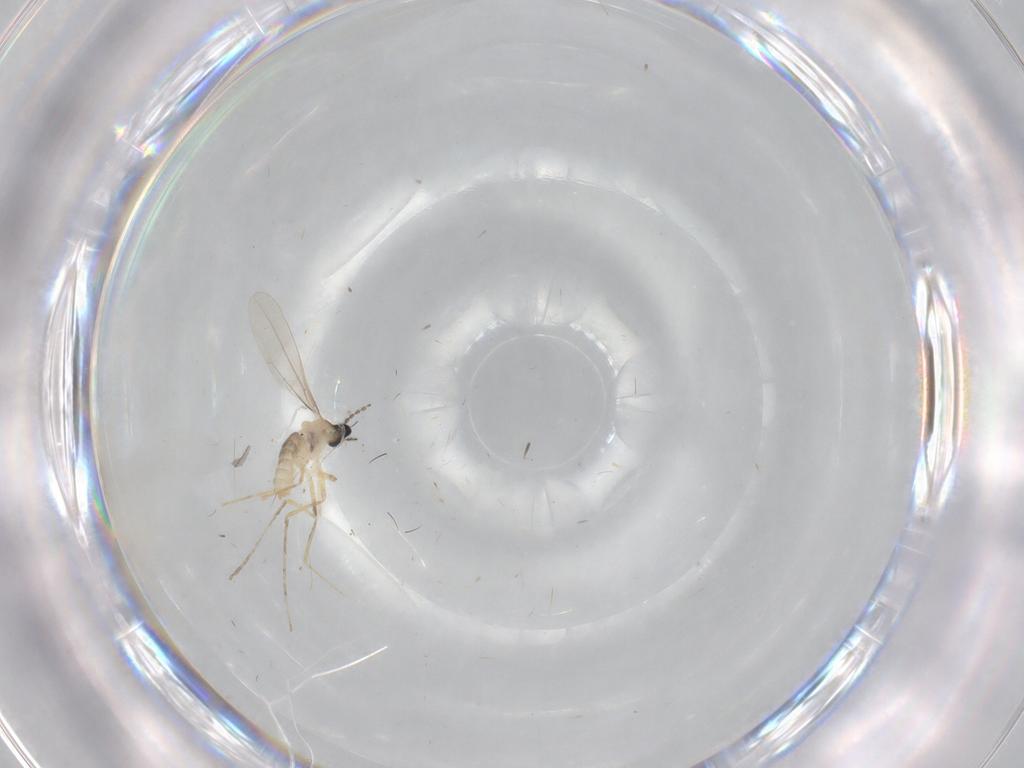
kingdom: Animalia
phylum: Arthropoda
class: Insecta
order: Diptera
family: Cecidomyiidae
